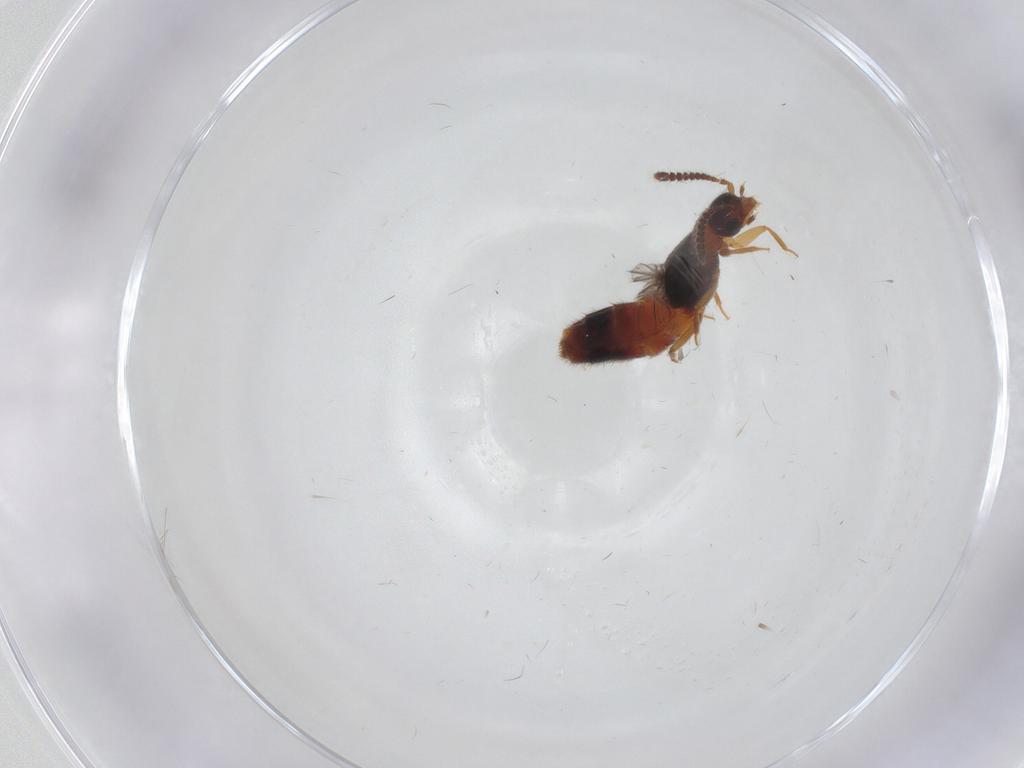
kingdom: Animalia
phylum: Arthropoda
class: Insecta
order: Coleoptera
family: Staphylinidae
